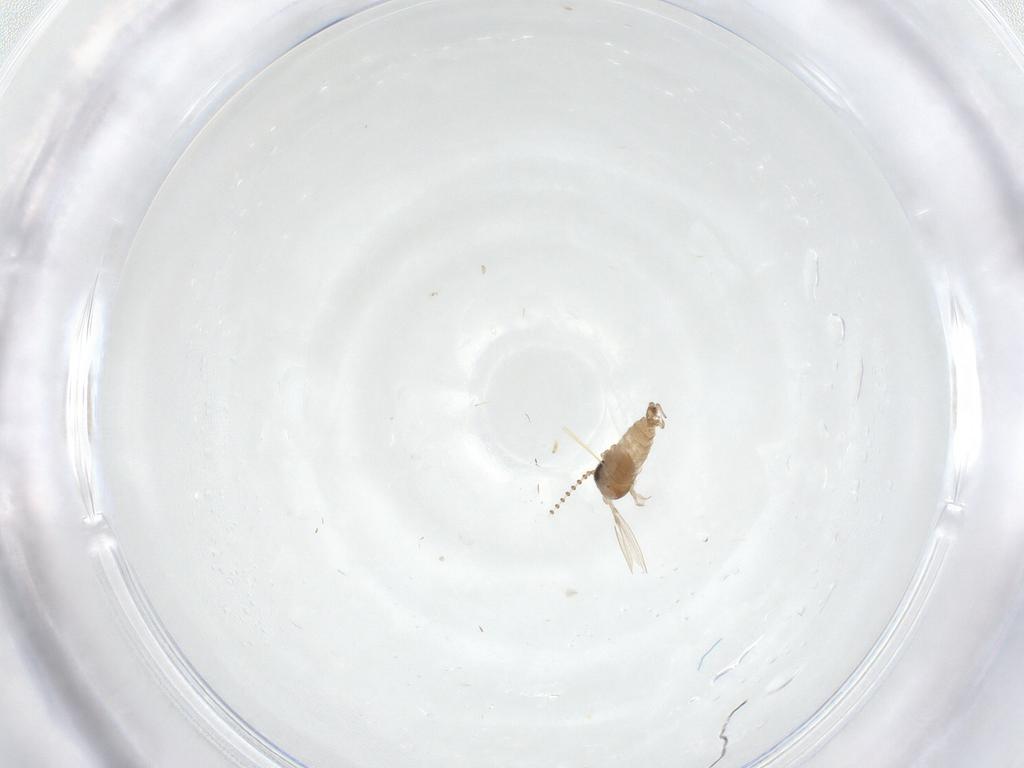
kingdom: Animalia
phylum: Arthropoda
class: Insecta
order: Diptera
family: Psychodidae
